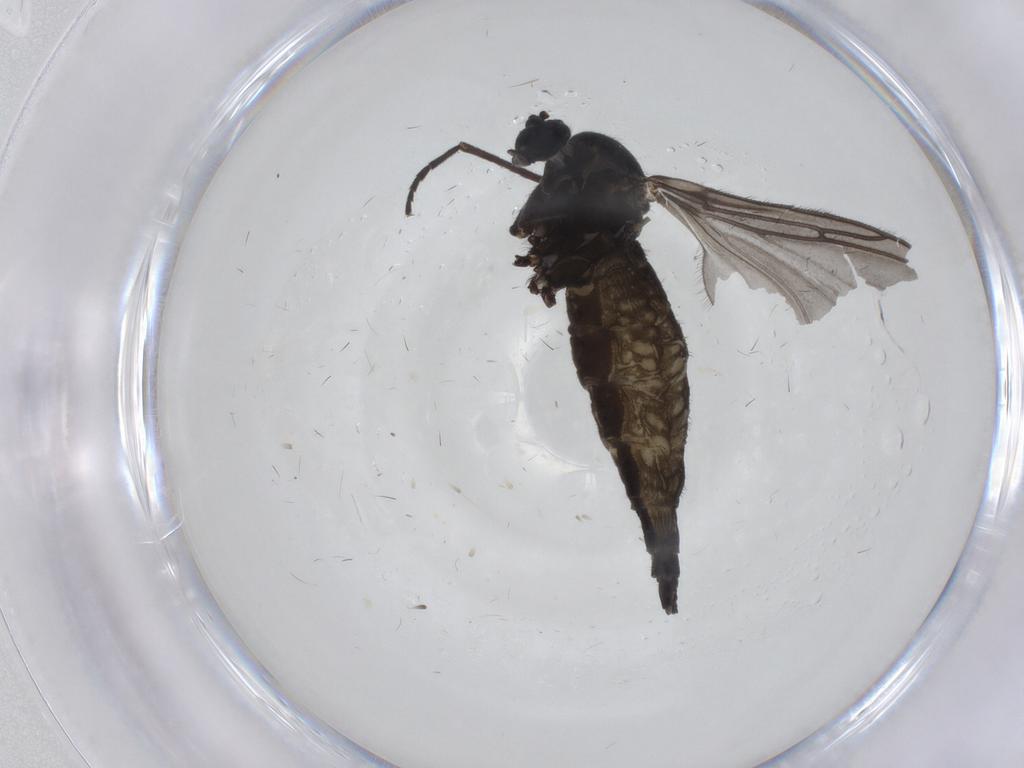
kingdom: Animalia
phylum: Arthropoda
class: Insecta
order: Diptera
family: Sciaridae
